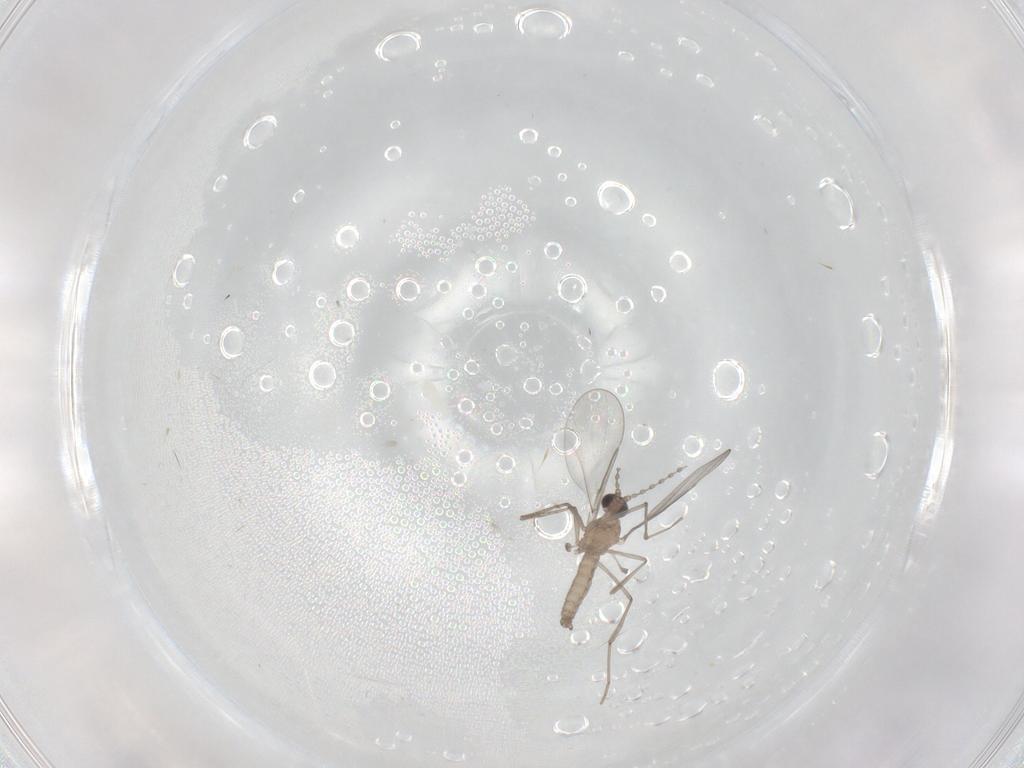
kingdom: Animalia
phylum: Arthropoda
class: Insecta
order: Diptera
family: Cecidomyiidae
